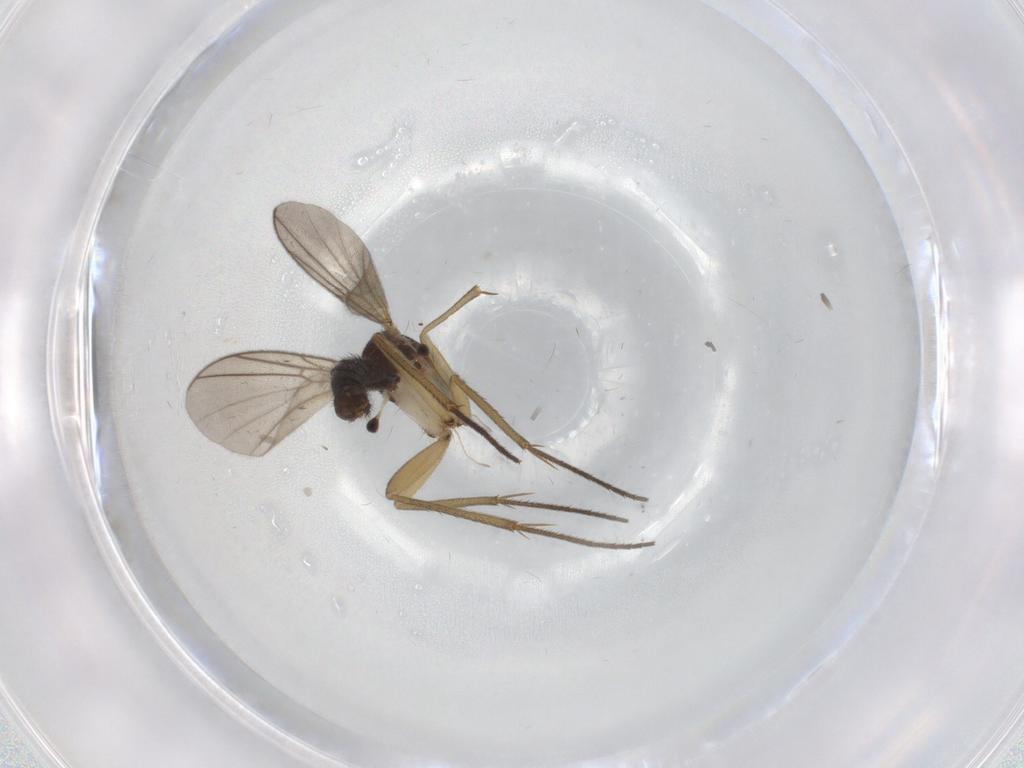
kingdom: Animalia
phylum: Arthropoda
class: Insecta
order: Diptera
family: Mycetophilidae
